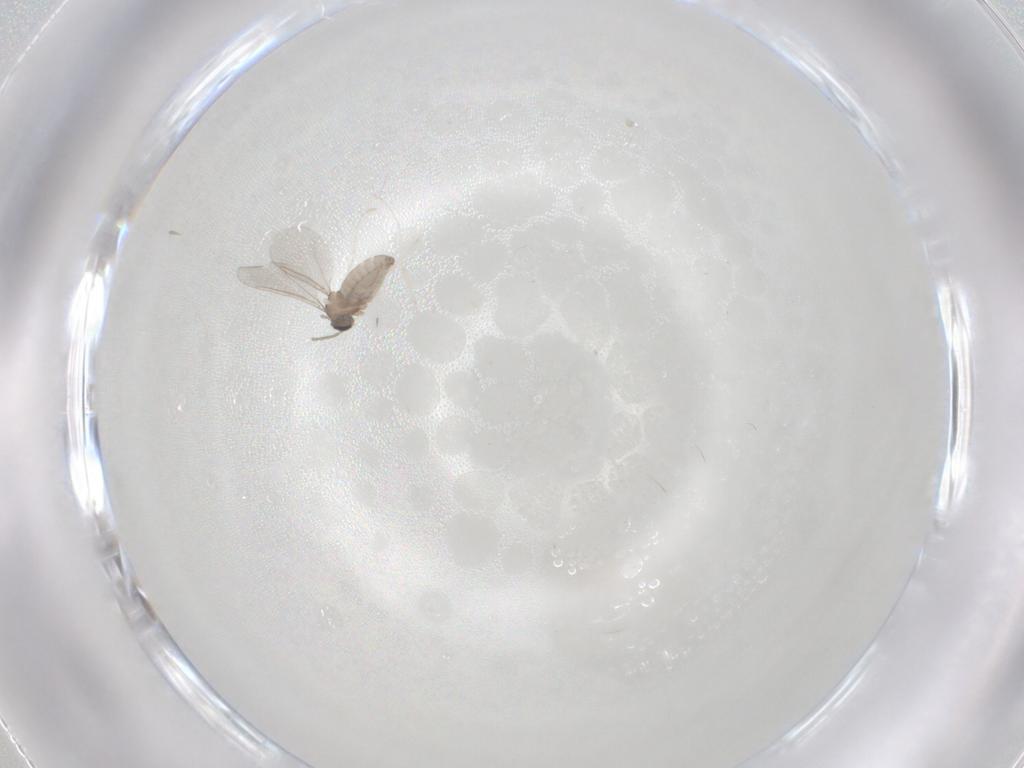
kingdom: Animalia
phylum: Arthropoda
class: Insecta
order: Diptera
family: Cecidomyiidae
